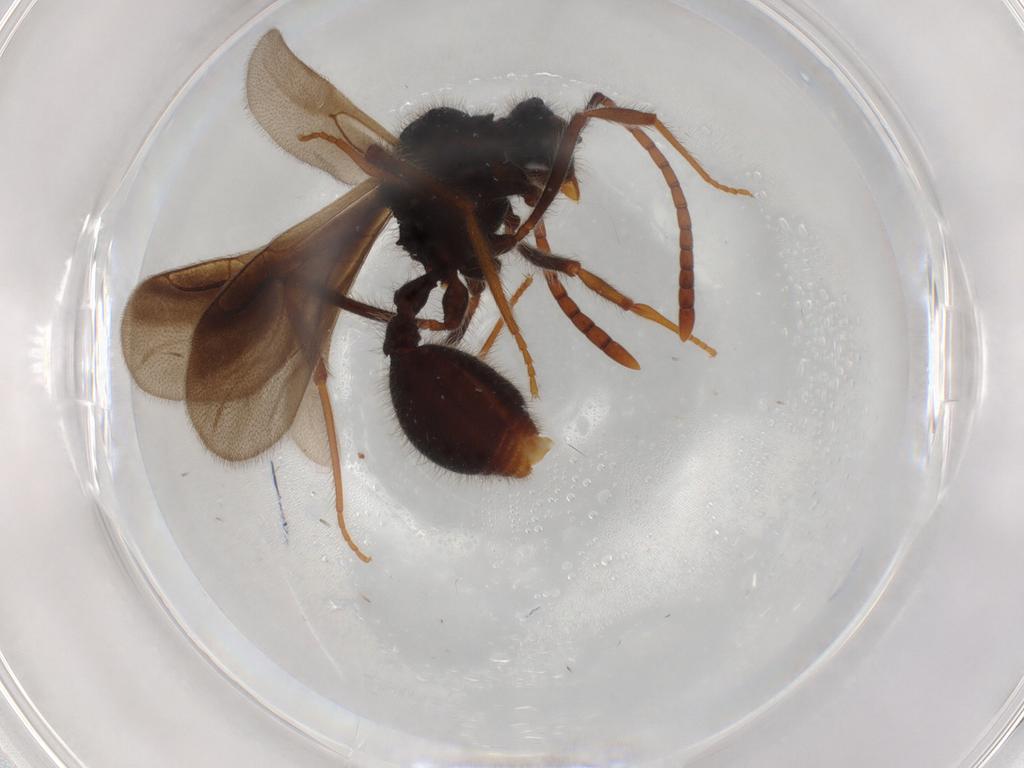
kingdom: Animalia
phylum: Arthropoda
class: Insecta
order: Hymenoptera
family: Formicidae
